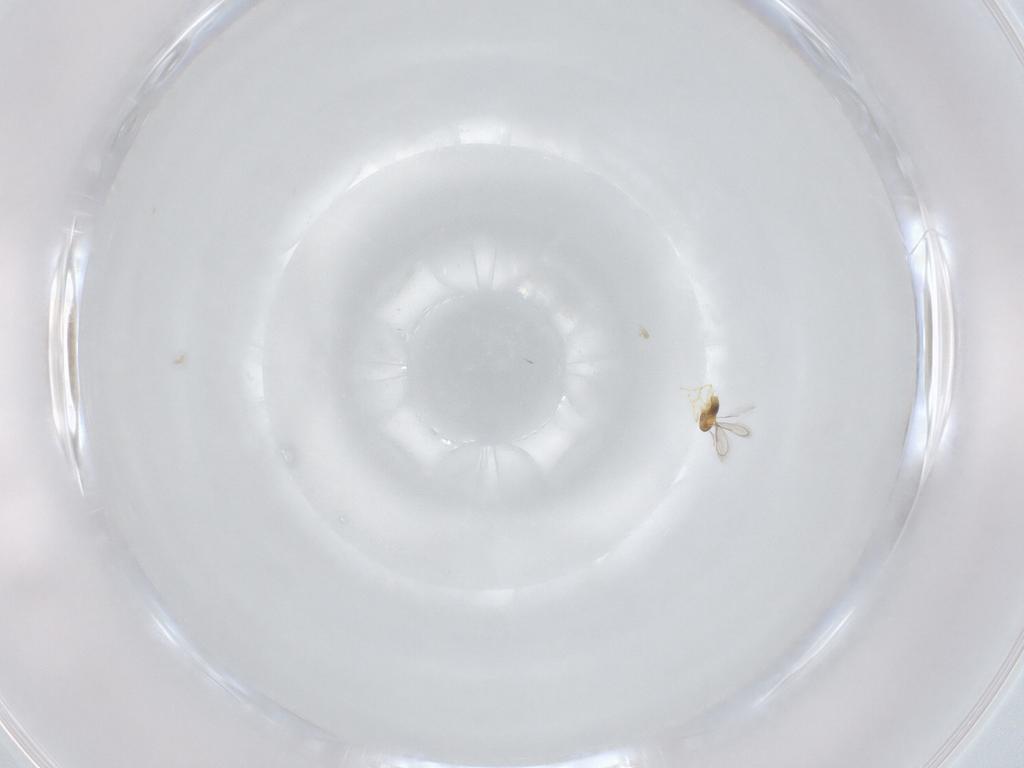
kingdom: Animalia
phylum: Arthropoda
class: Insecta
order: Hymenoptera
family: Aphelinidae
